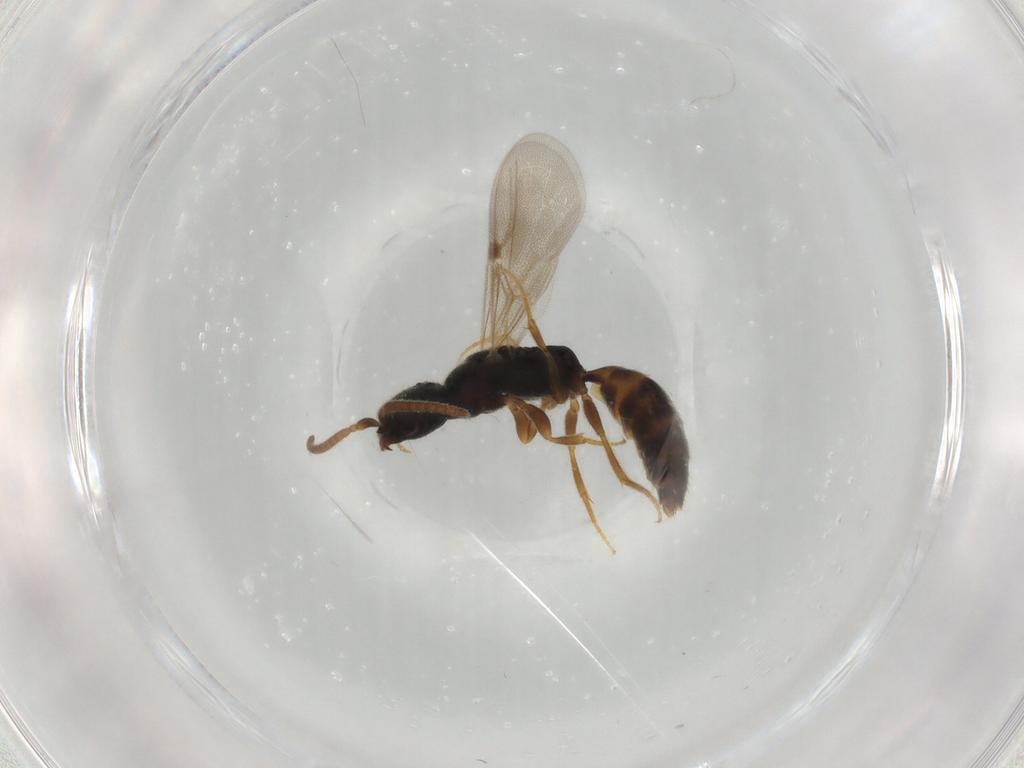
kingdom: Animalia
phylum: Arthropoda
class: Insecta
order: Hymenoptera
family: Bethylidae
